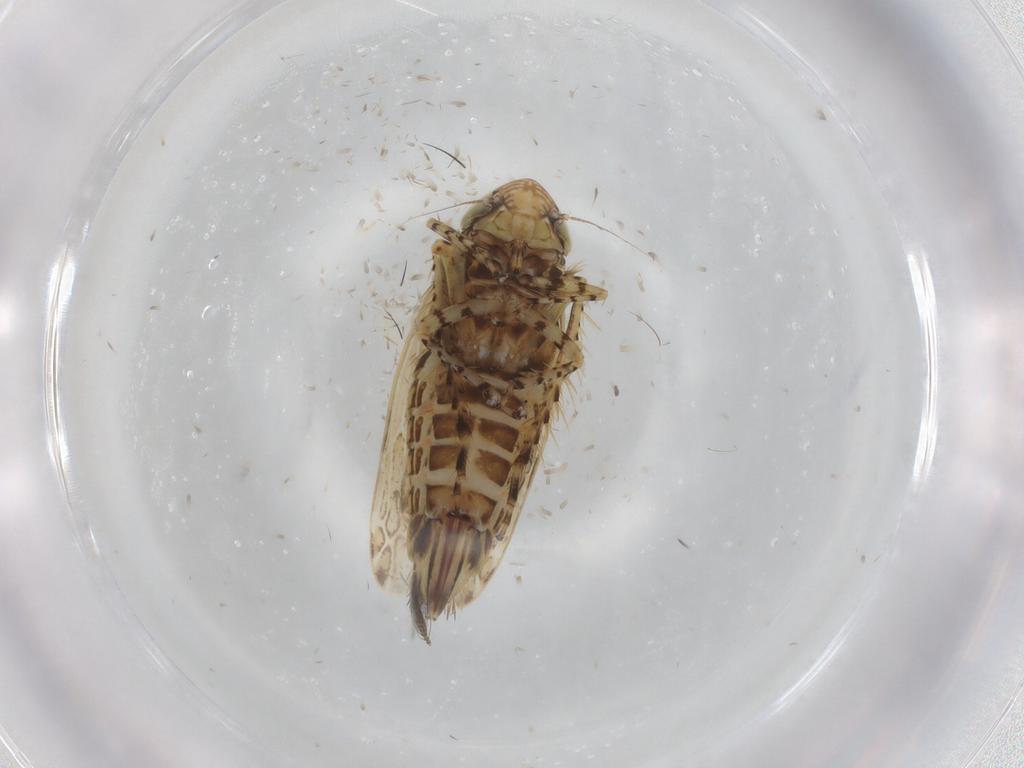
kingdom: Animalia
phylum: Arthropoda
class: Insecta
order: Hemiptera
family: Cicadellidae
